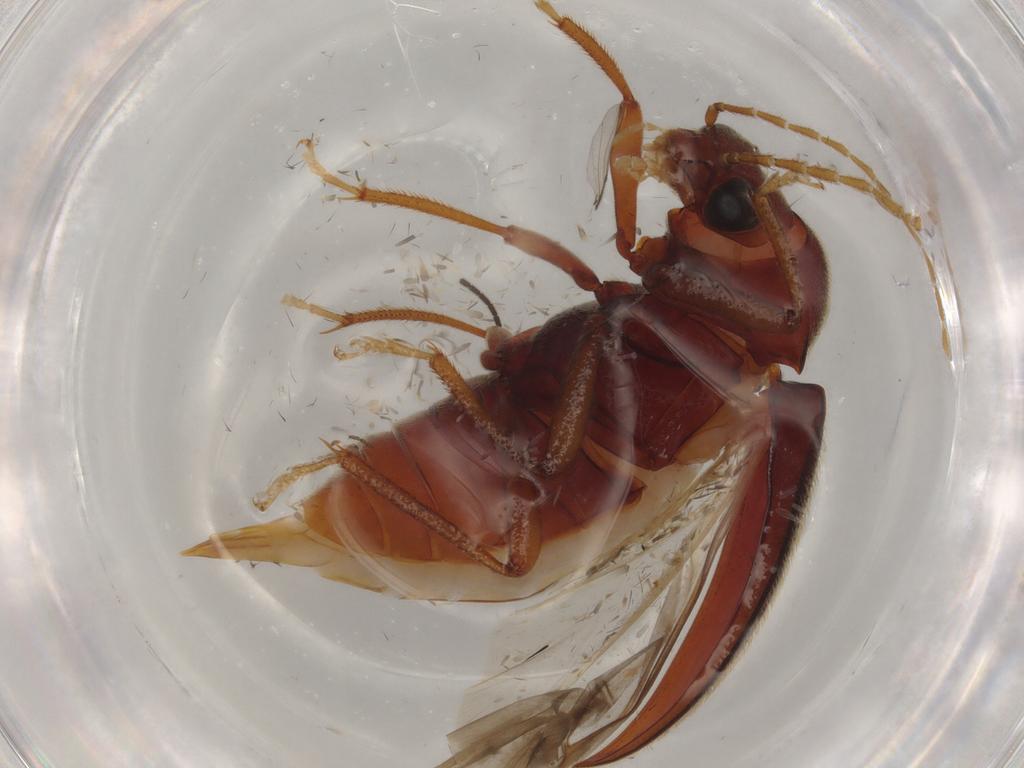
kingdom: Animalia
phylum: Arthropoda
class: Insecta
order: Coleoptera
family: Ptilodactylidae
